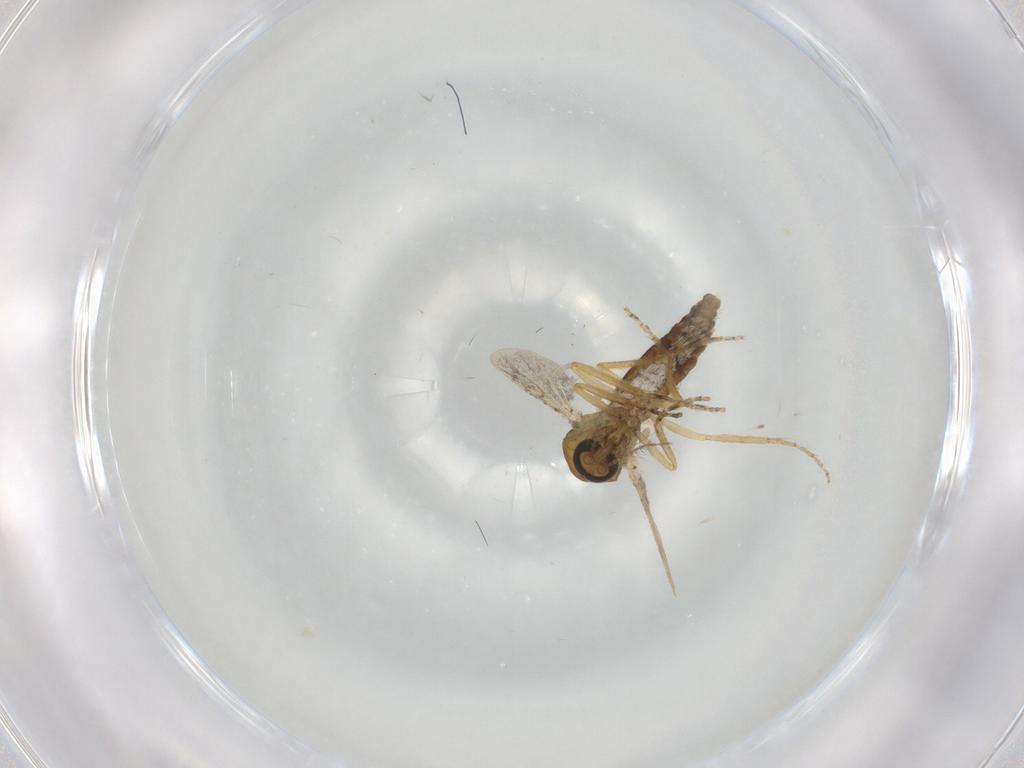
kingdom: Animalia
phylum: Arthropoda
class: Insecta
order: Diptera
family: Ceratopogonidae
